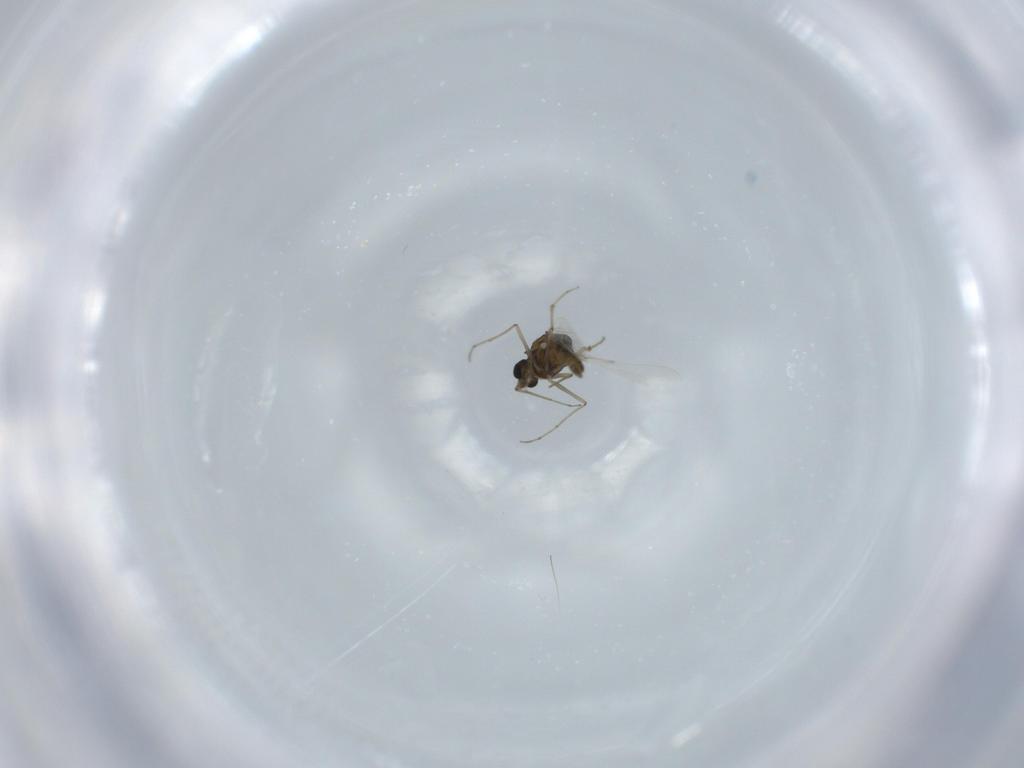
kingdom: Animalia
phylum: Arthropoda
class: Insecta
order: Diptera
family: Chironomidae
